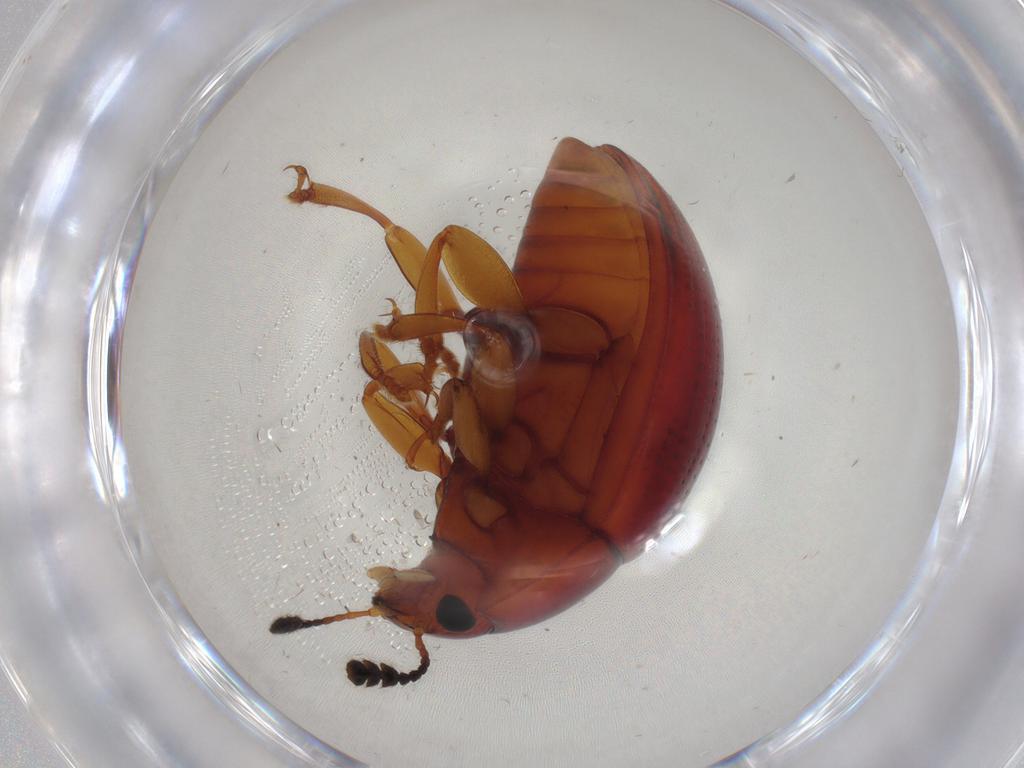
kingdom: Animalia
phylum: Arthropoda
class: Insecta
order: Coleoptera
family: Erotylidae
